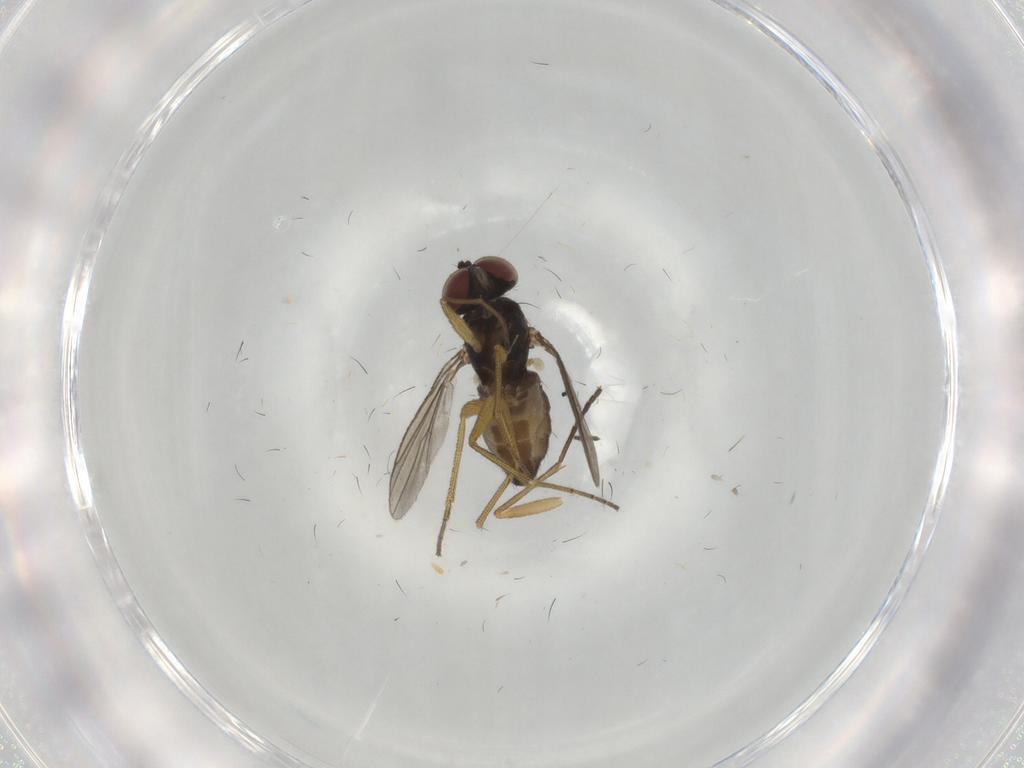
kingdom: Animalia
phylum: Arthropoda
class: Insecta
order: Diptera
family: Dolichopodidae
